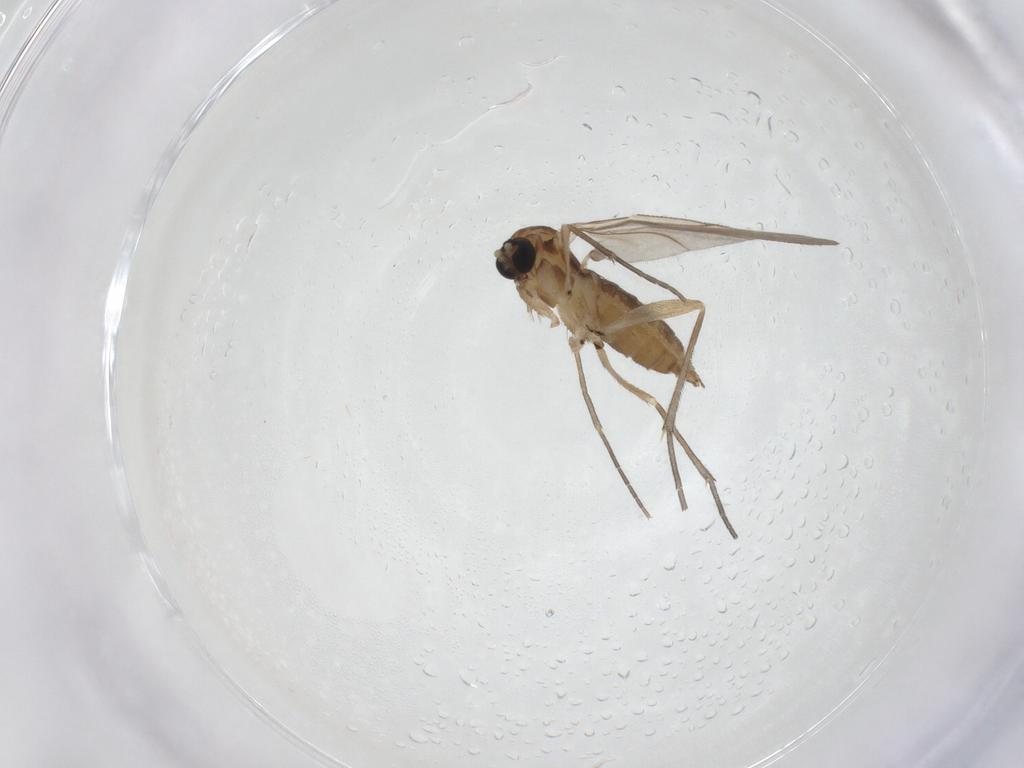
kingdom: Animalia
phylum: Arthropoda
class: Insecta
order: Diptera
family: Sciaridae
